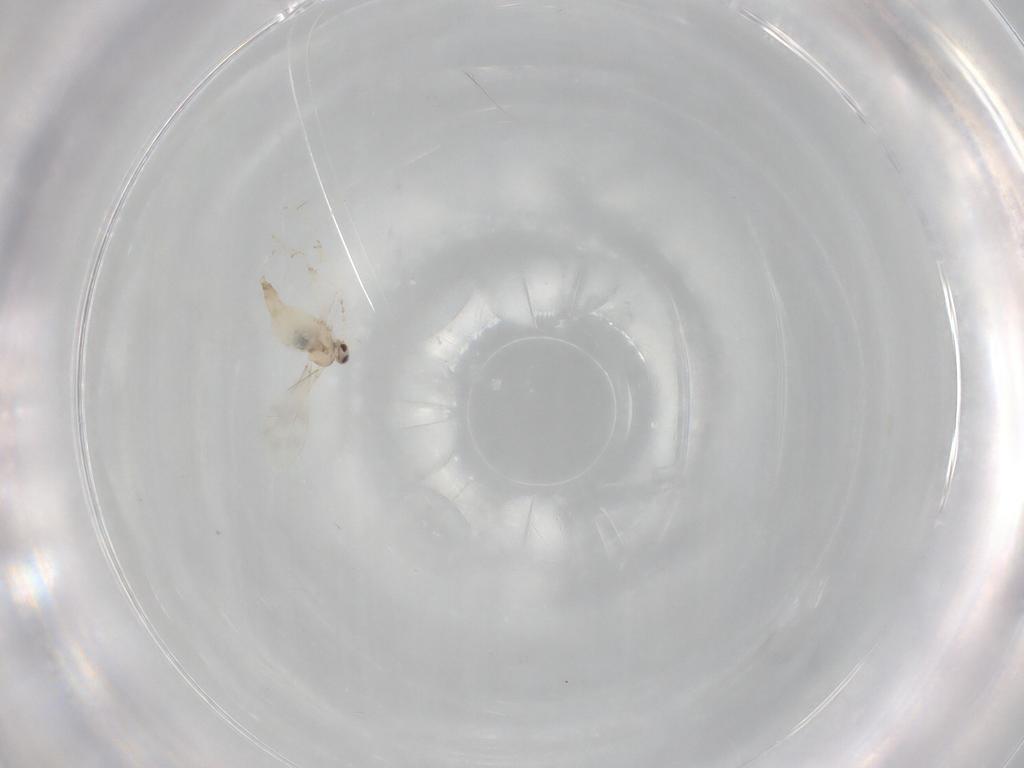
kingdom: Animalia
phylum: Arthropoda
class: Insecta
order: Diptera
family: Cecidomyiidae
